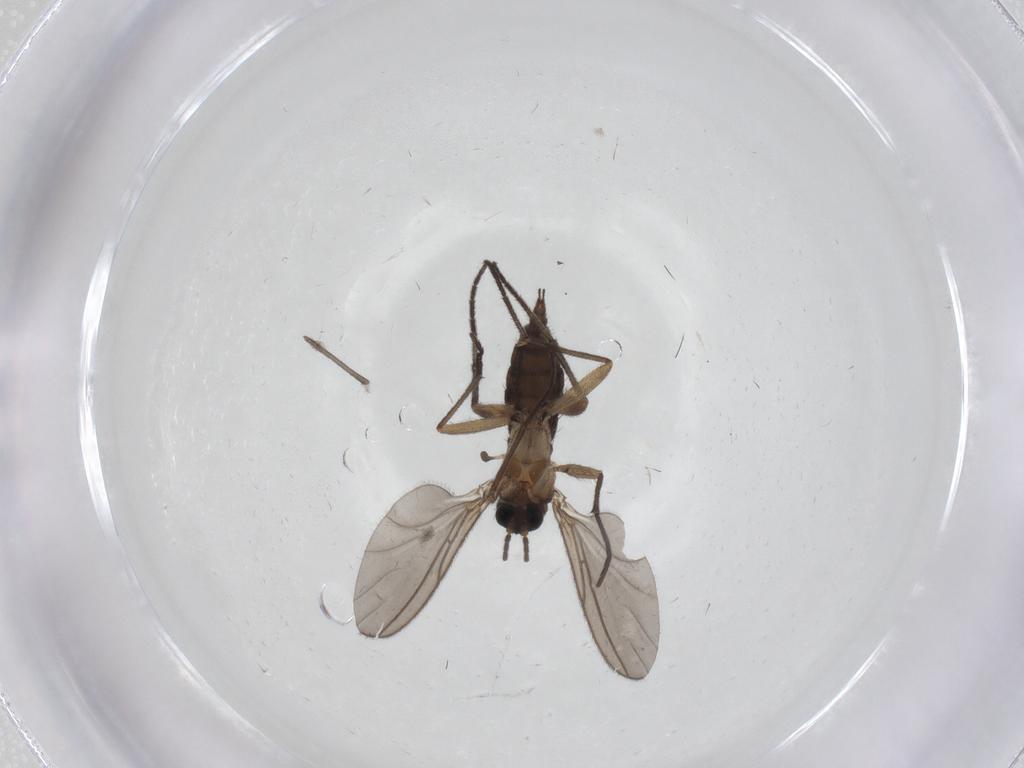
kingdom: Animalia
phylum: Arthropoda
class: Insecta
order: Diptera
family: Sciaridae
